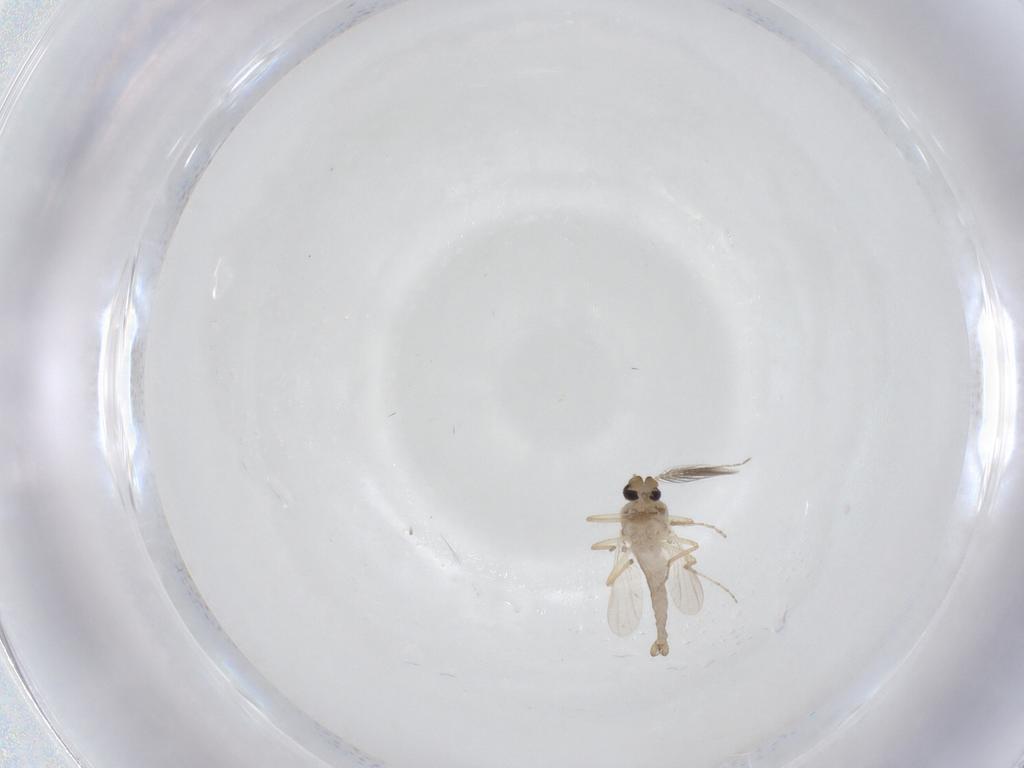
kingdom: Animalia
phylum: Arthropoda
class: Insecta
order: Diptera
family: Ceratopogonidae
